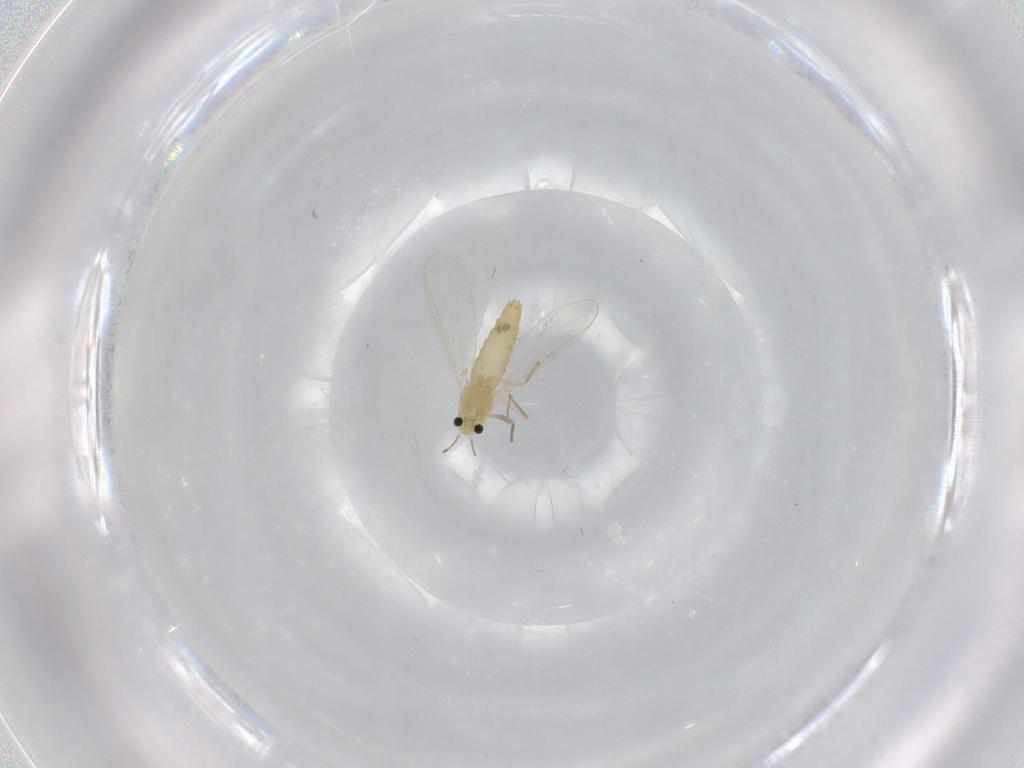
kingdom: Animalia
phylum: Arthropoda
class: Insecta
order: Diptera
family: Chironomidae
